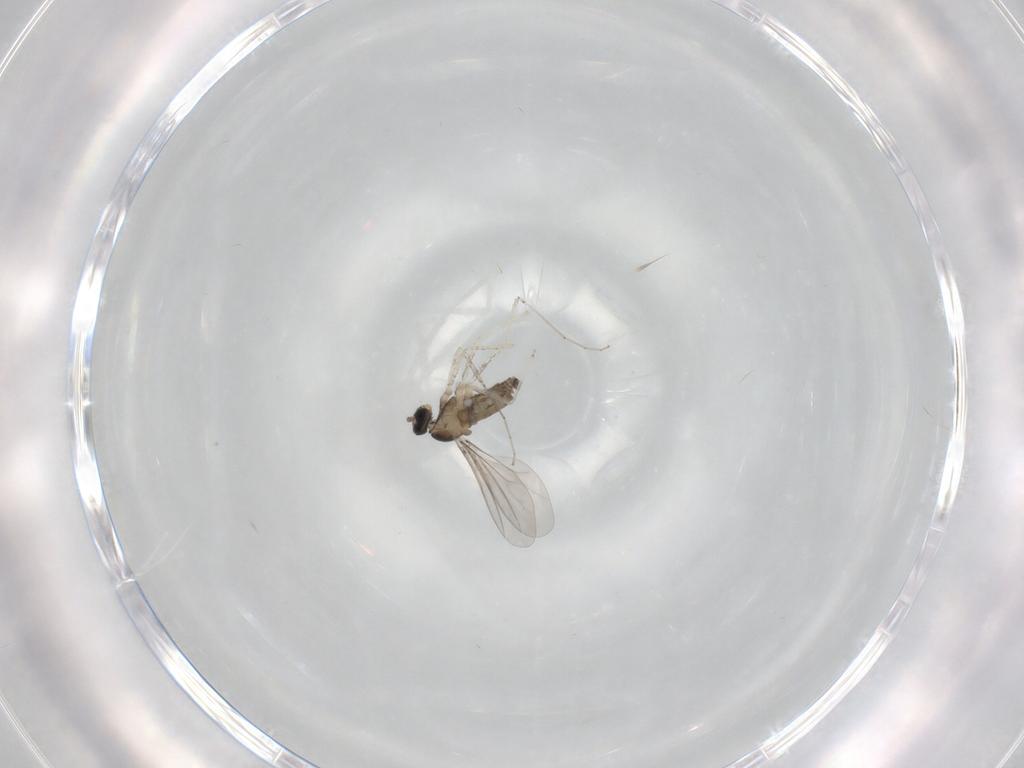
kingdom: Animalia
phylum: Arthropoda
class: Insecta
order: Diptera
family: Cecidomyiidae
